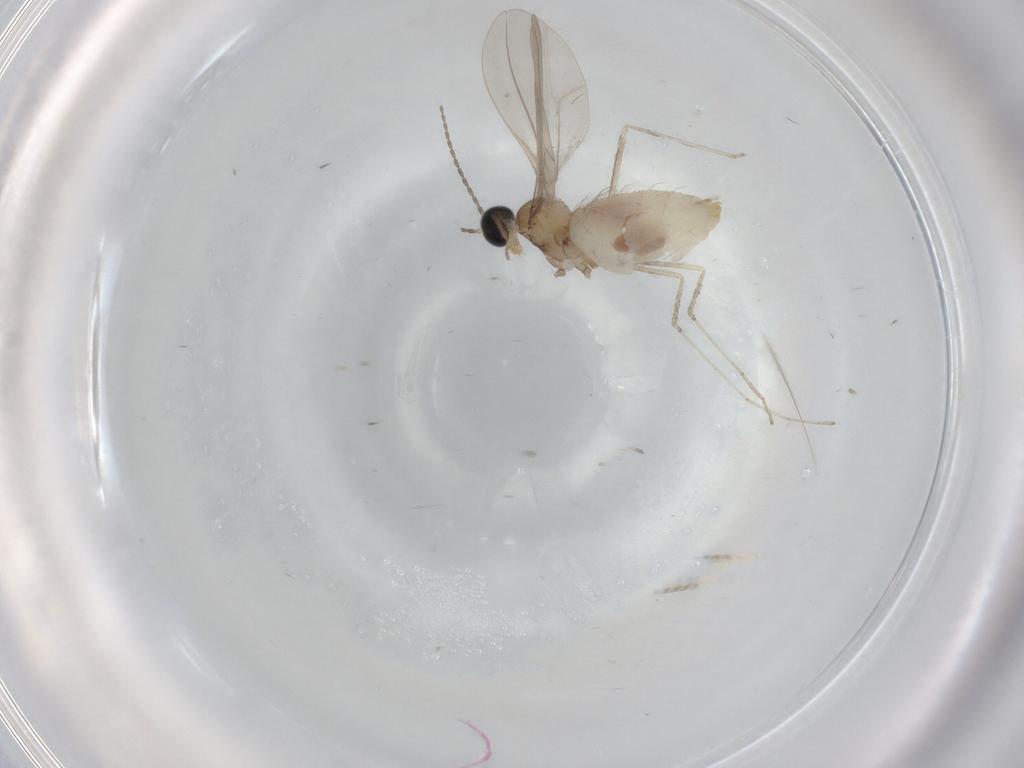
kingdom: Animalia
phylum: Arthropoda
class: Insecta
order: Diptera
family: Cecidomyiidae
